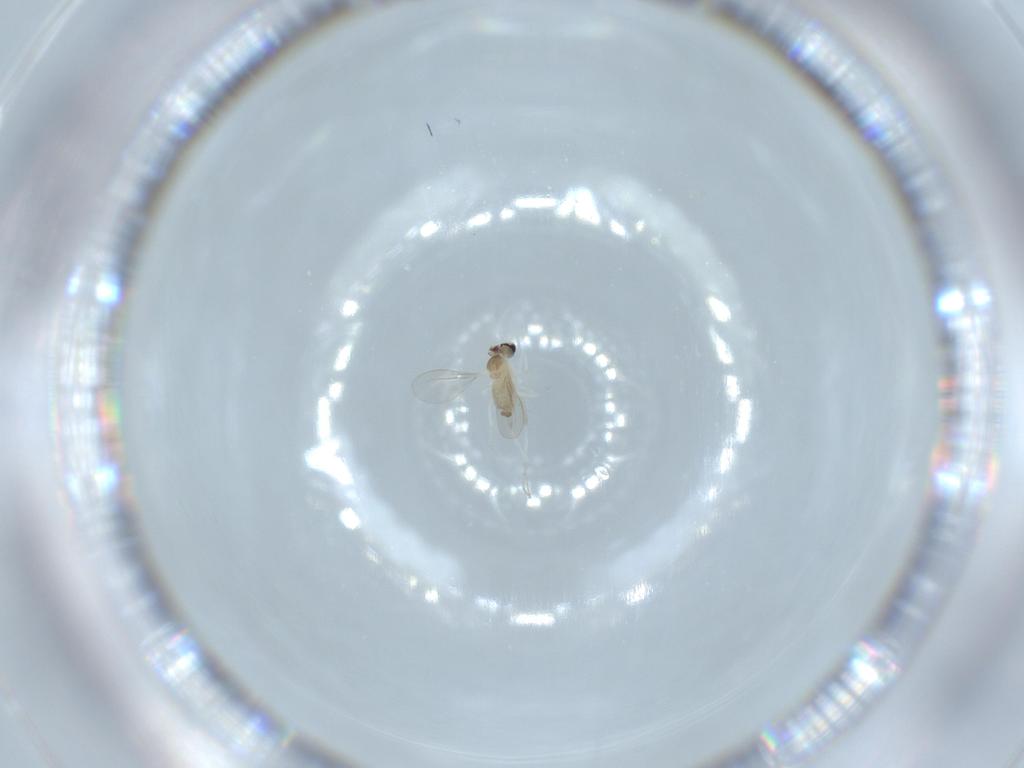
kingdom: Animalia
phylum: Arthropoda
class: Insecta
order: Diptera
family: Cecidomyiidae
